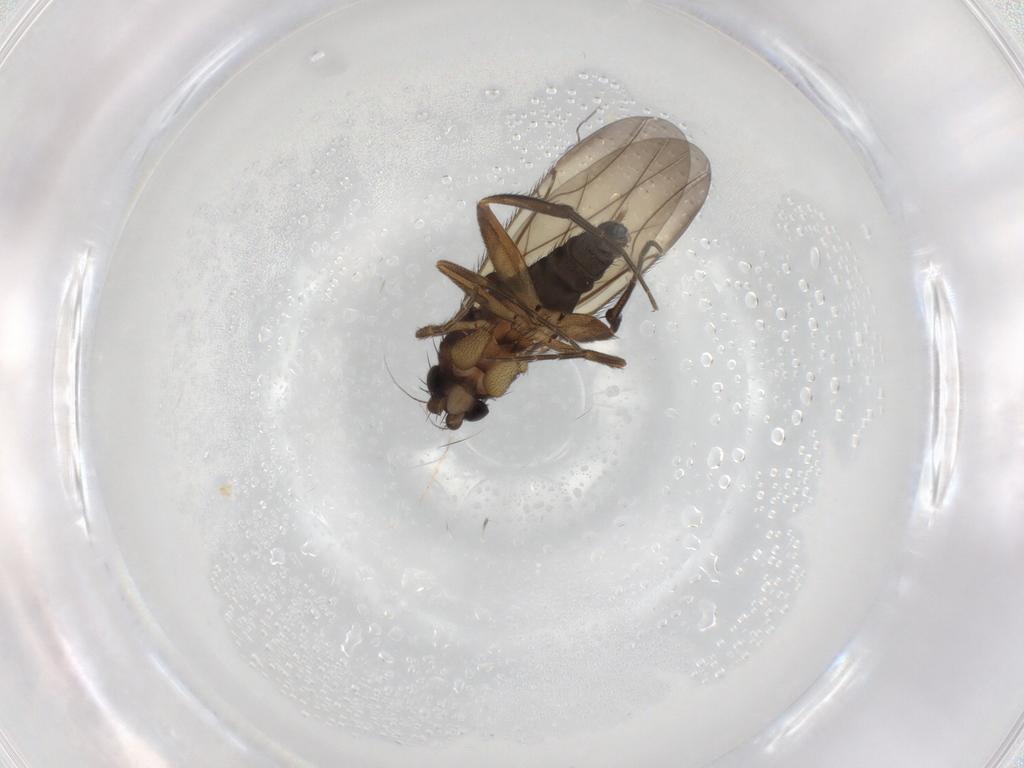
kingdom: Animalia
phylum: Arthropoda
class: Insecta
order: Diptera
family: Phoridae
